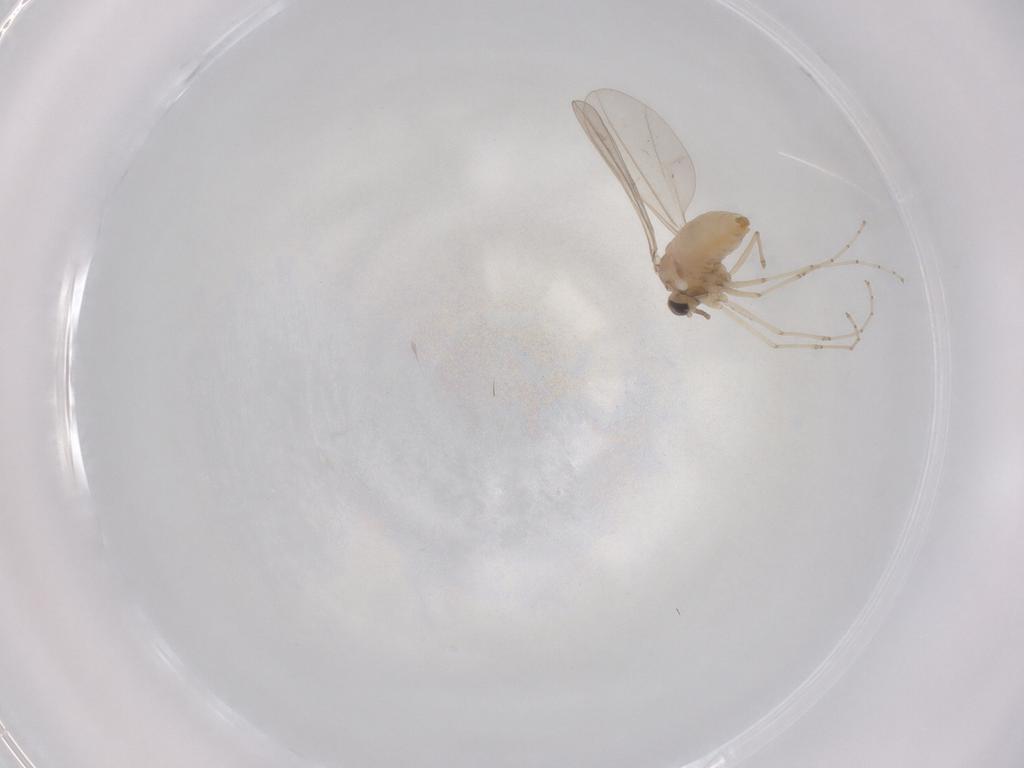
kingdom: Animalia
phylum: Arthropoda
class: Insecta
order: Diptera
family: Cecidomyiidae
